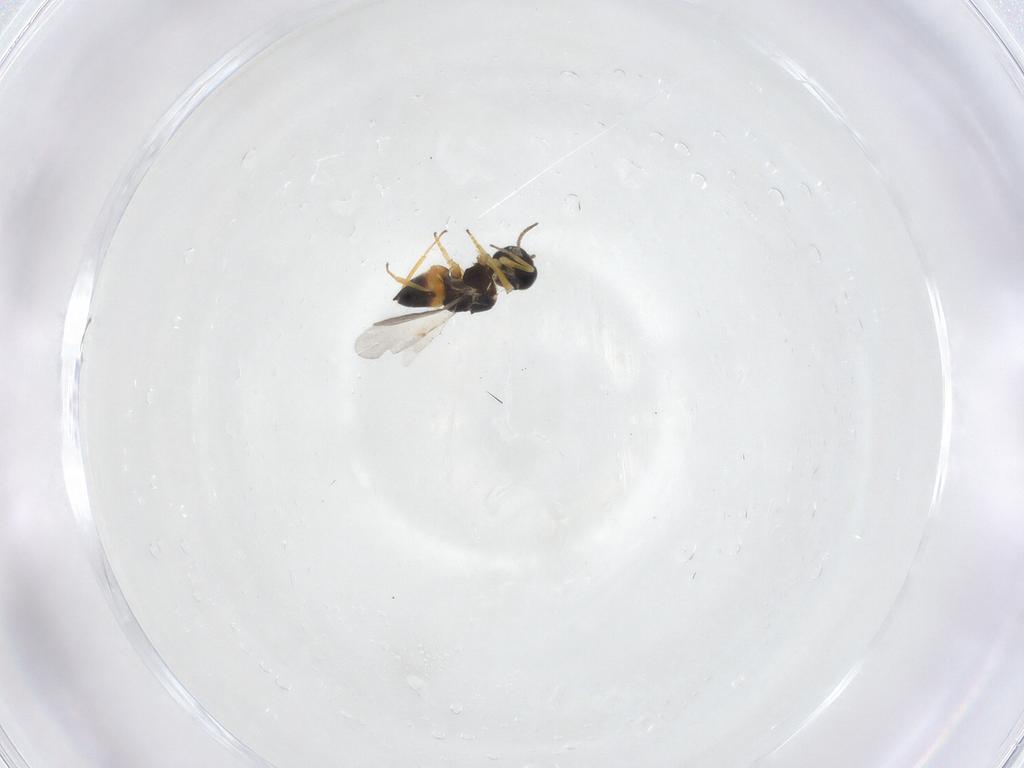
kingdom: Animalia
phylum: Arthropoda
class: Insecta
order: Hymenoptera
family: Encyrtidae
